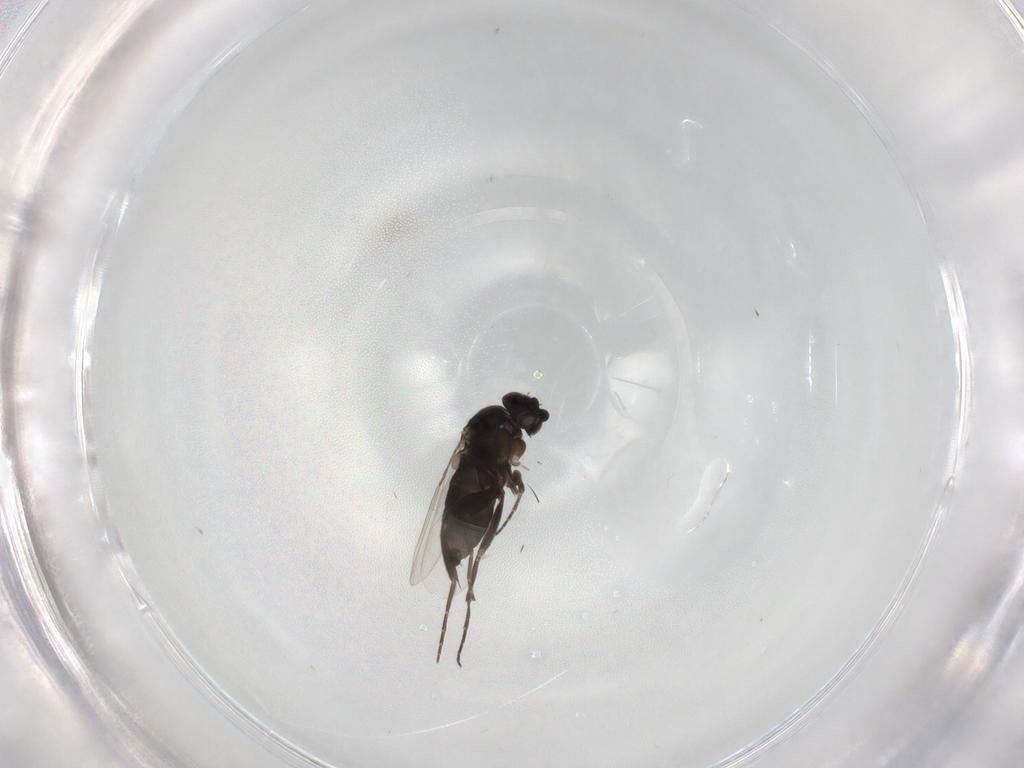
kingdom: Animalia
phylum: Arthropoda
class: Insecta
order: Diptera
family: Phoridae
